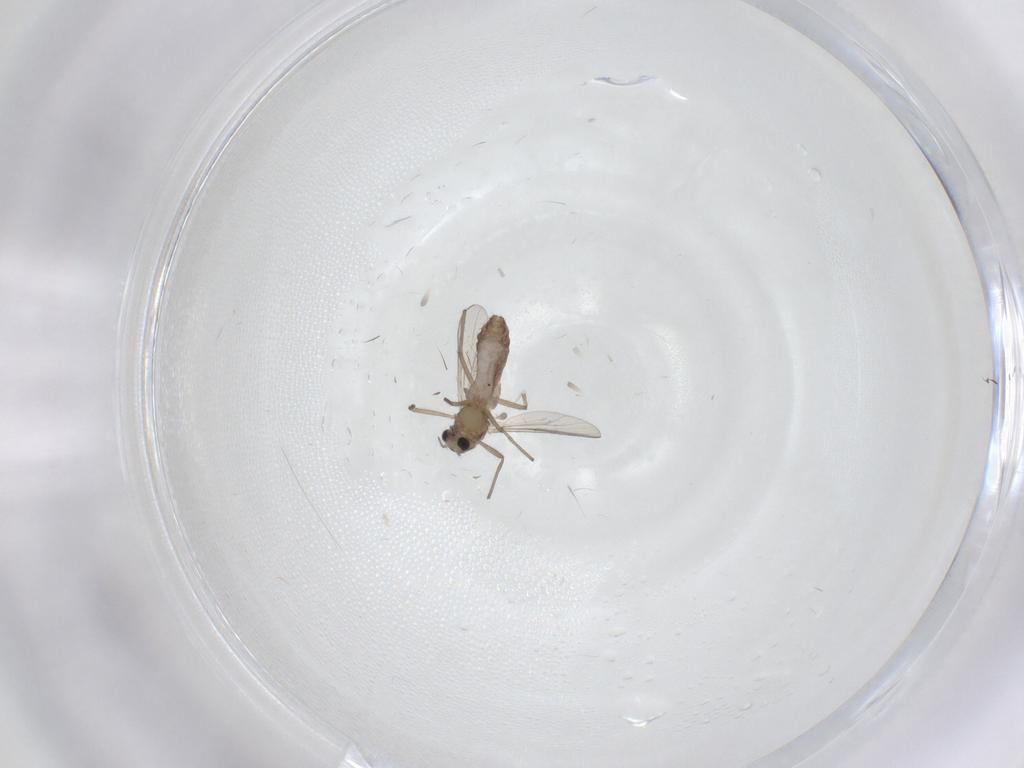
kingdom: Animalia
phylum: Arthropoda
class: Insecta
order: Diptera
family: Chironomidae
